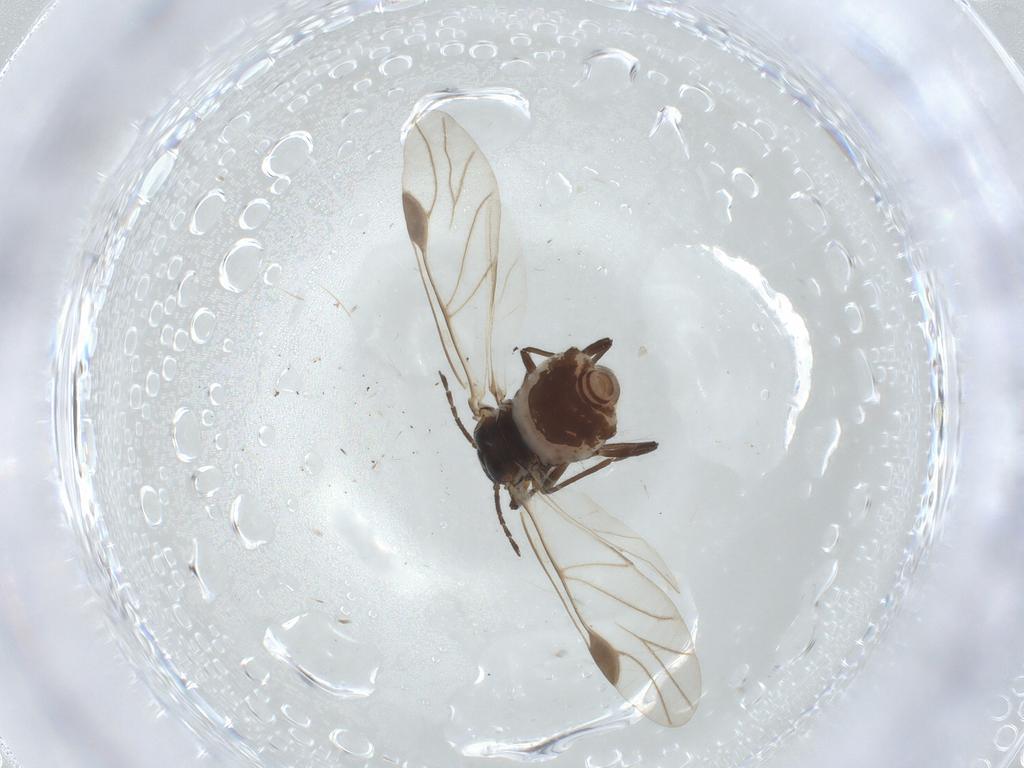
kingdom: Animalia
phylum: Arthropoda
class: Insecta
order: Hemiptera
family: Aphididae
